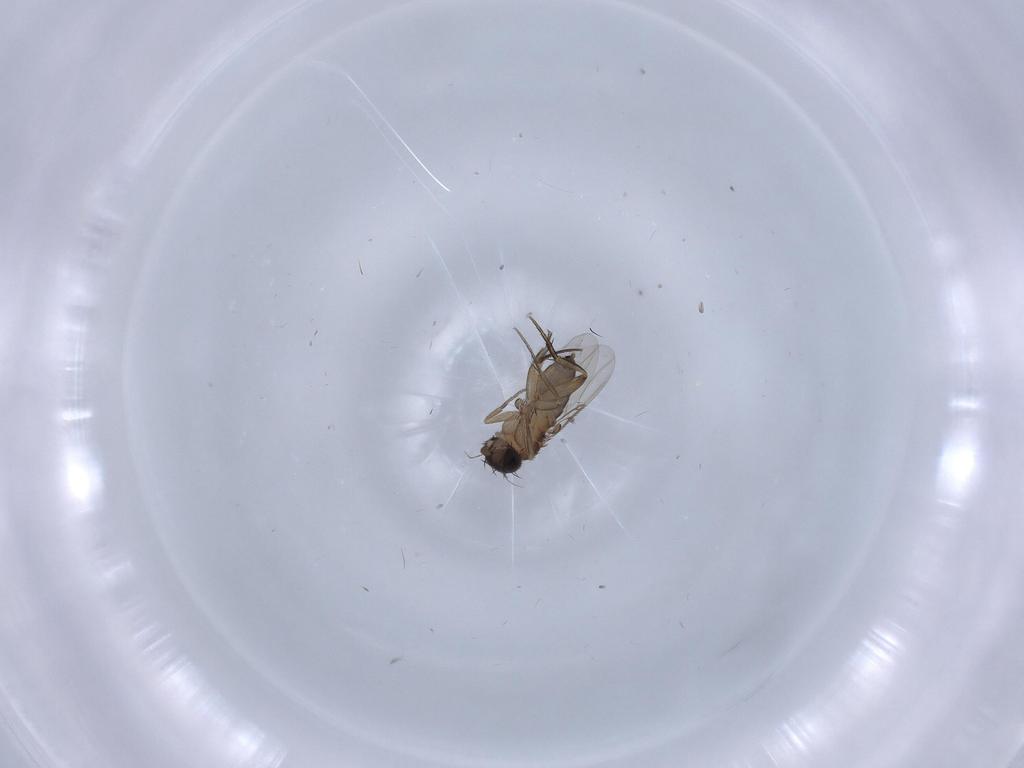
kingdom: Animalia
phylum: Arthropoda
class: Insecta
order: Diptera
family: Phoridae
